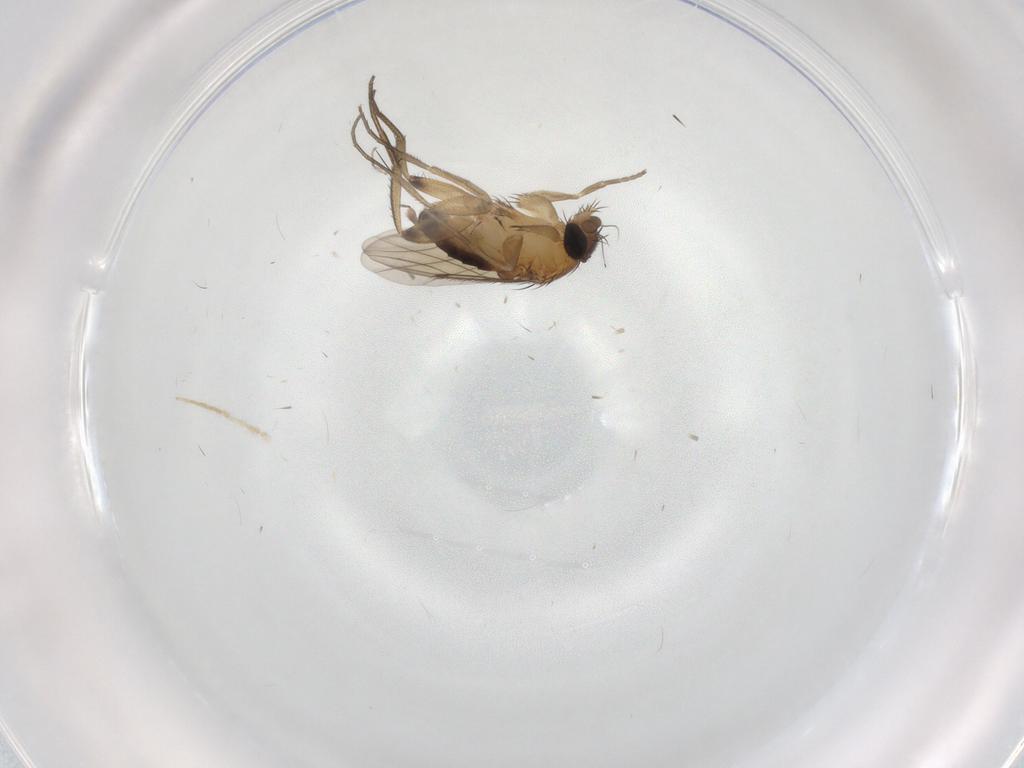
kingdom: Animalia
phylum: Arthropoda
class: Insecta
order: Diptera
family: Phoridae
